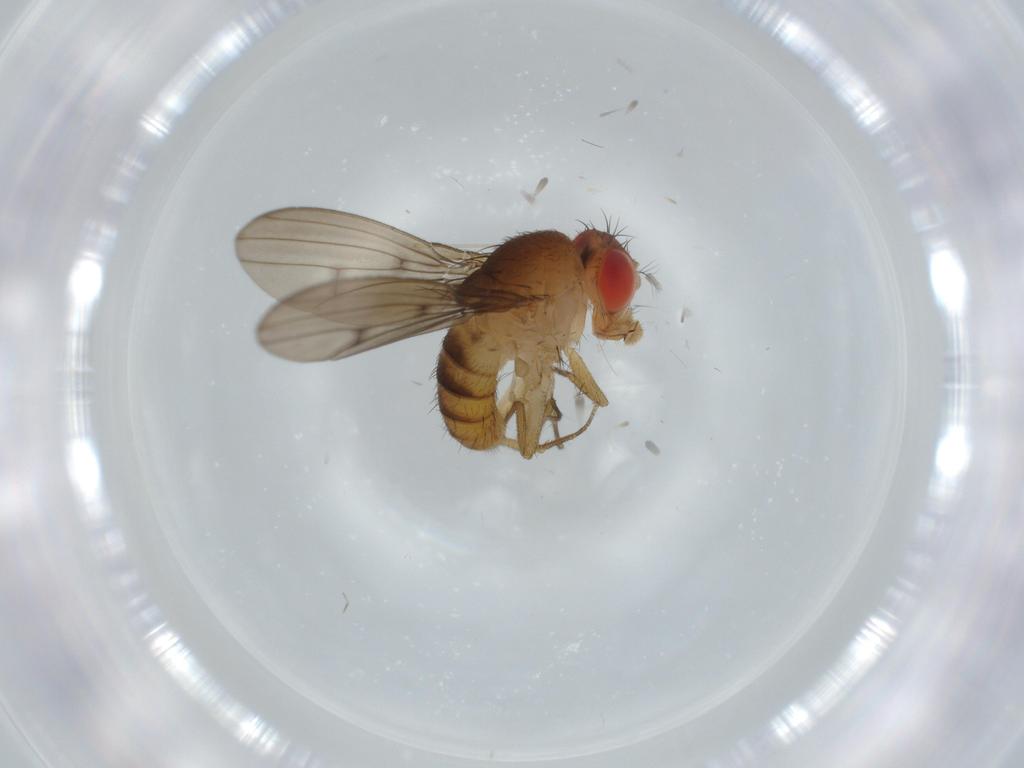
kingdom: Animalia
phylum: Arthropoda
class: Insecta
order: Diptera
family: Drosophilidae
